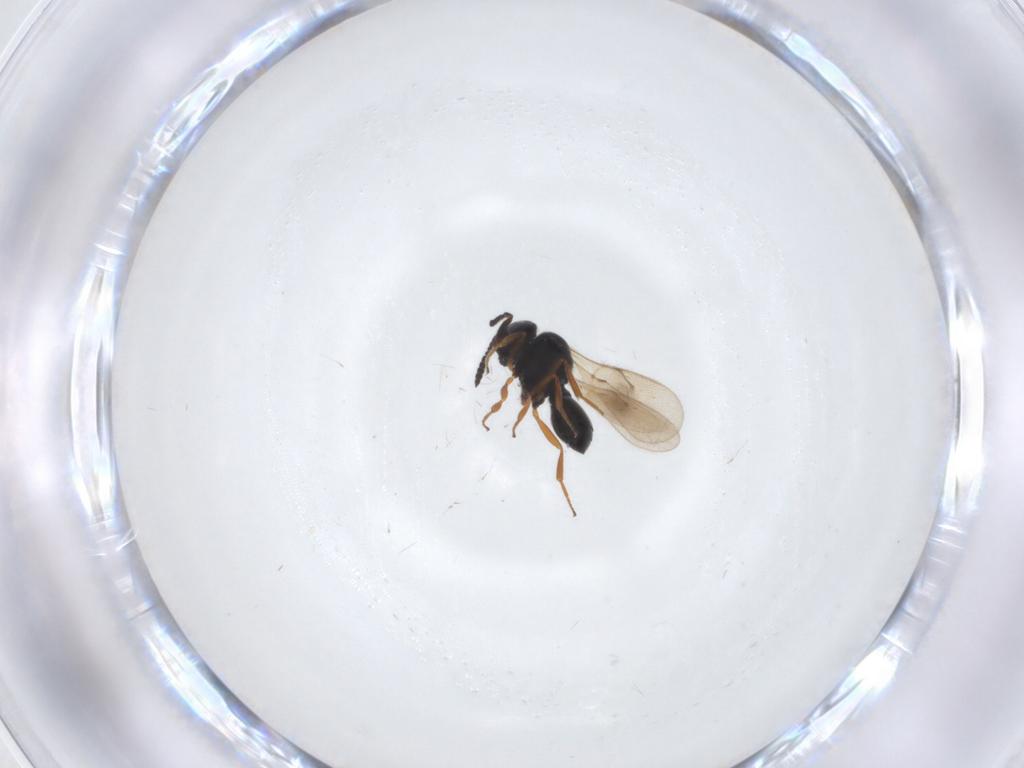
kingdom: Animalia
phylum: Arthropoda
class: Insecta
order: Hymenoptera
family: Scelionidae
